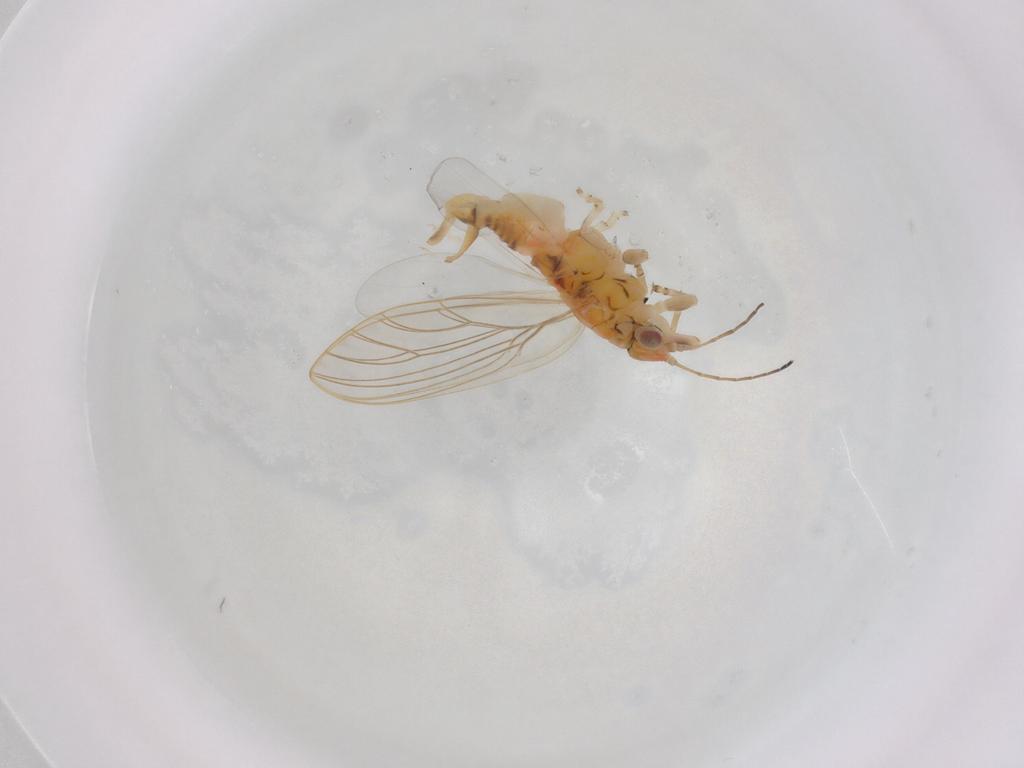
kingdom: Animalia
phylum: Arthropoda
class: Insecta
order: Hemiptera
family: Aphalaridae
